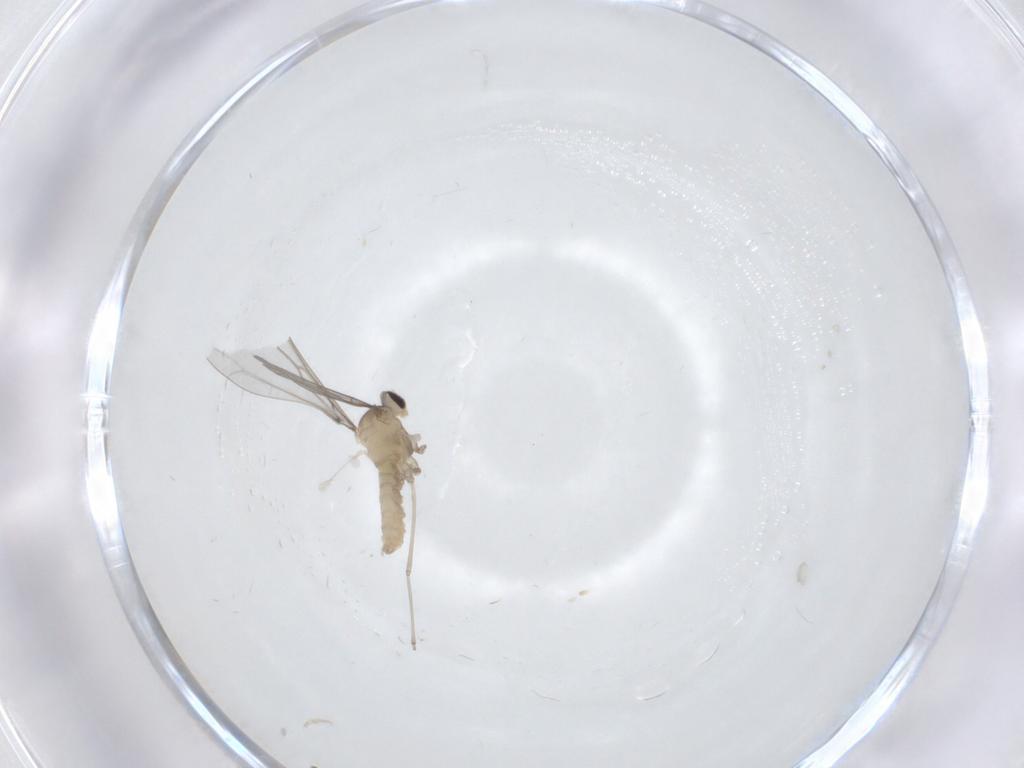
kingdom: Animalia
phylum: Arthropoda
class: Insecta
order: Diptera
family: Cecidomyiidae
